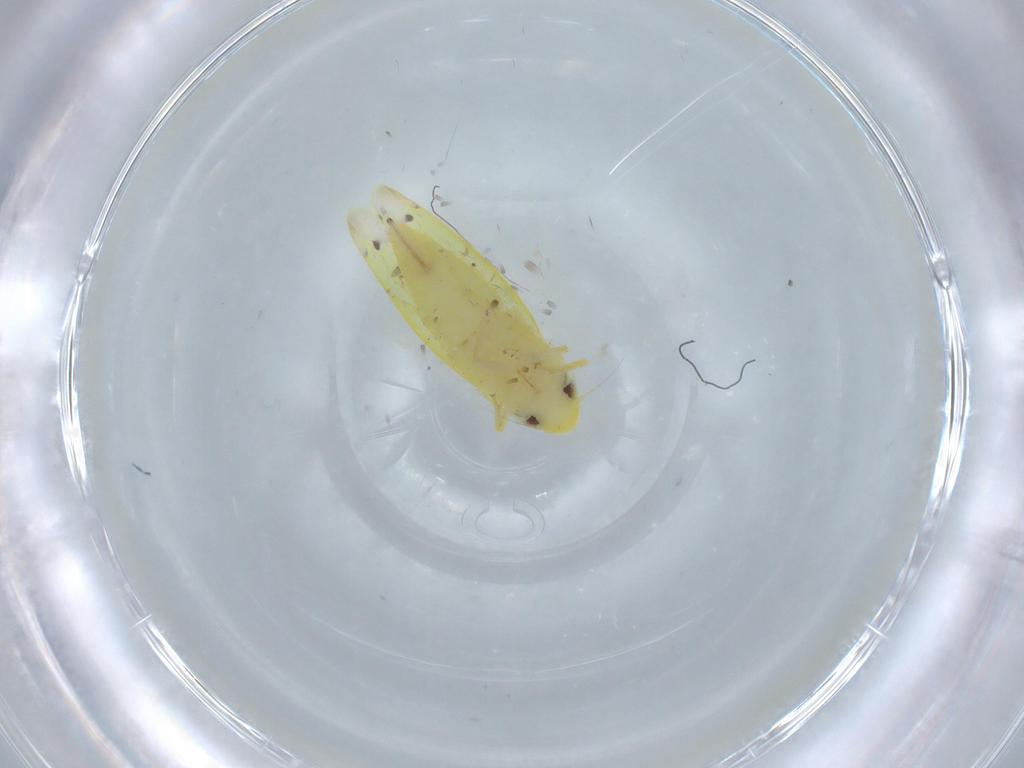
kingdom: Animalia
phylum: Arthropoda
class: Insecta
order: Hemiptera
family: Cicadellidae
